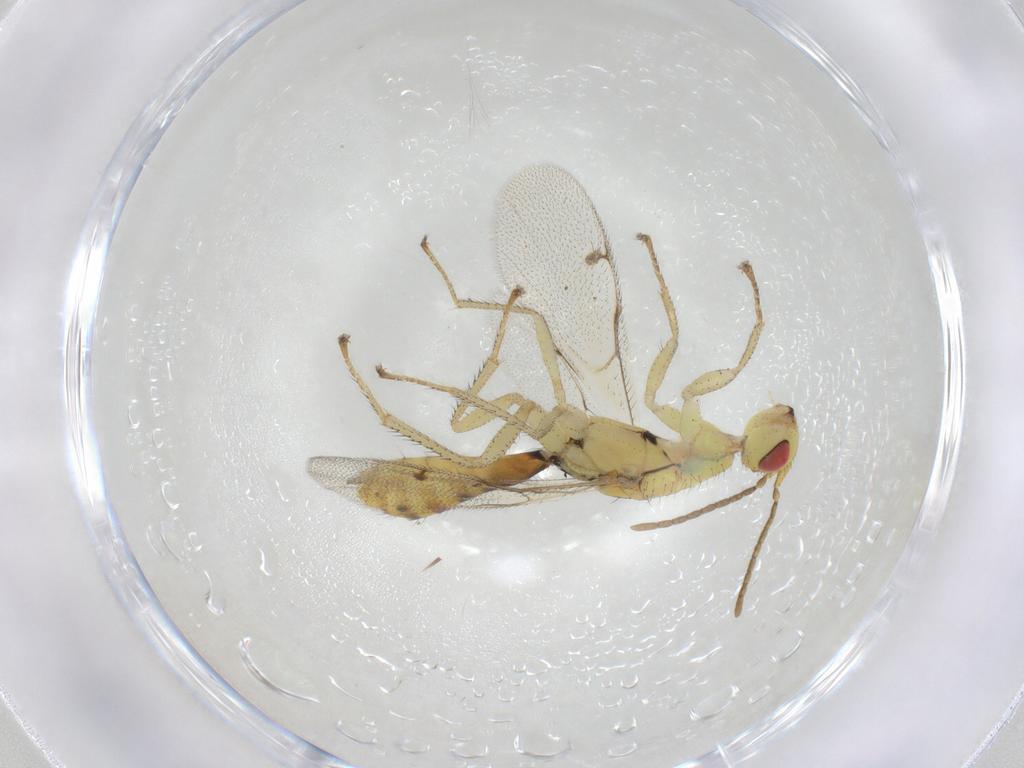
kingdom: Animalia
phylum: Arthropoda
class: Insecta
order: Hymenoptera
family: Megastigmidae
